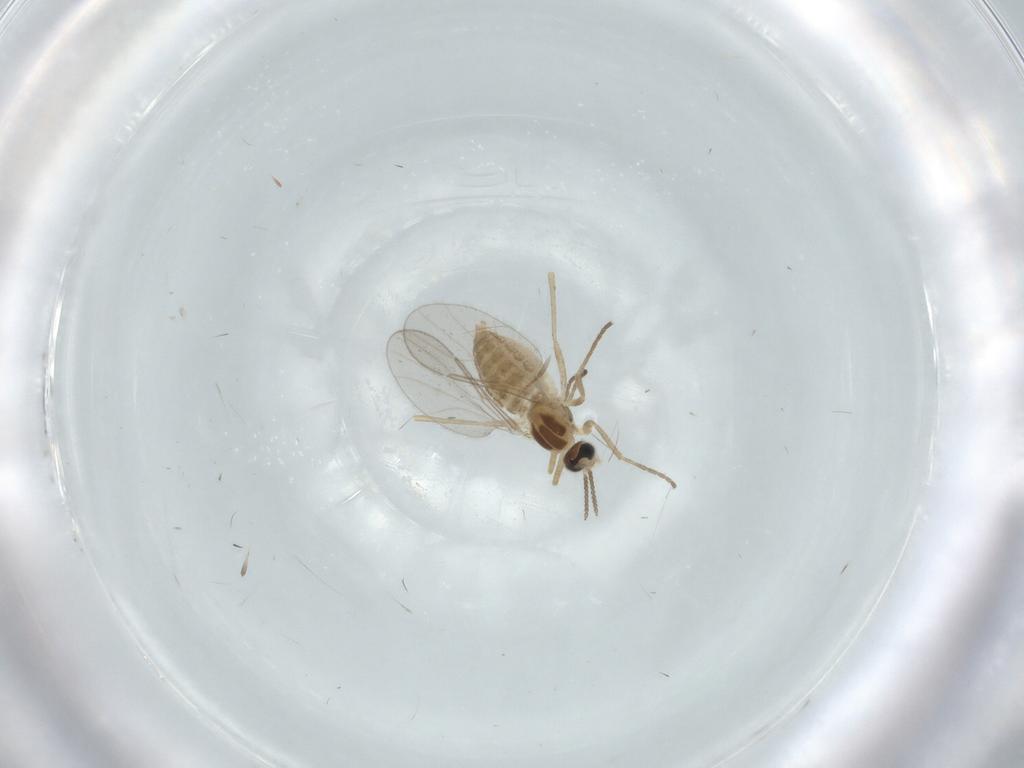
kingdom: Animalia
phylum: Arthropoda
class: Insecta
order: Diptera
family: Cecidomyiidae
